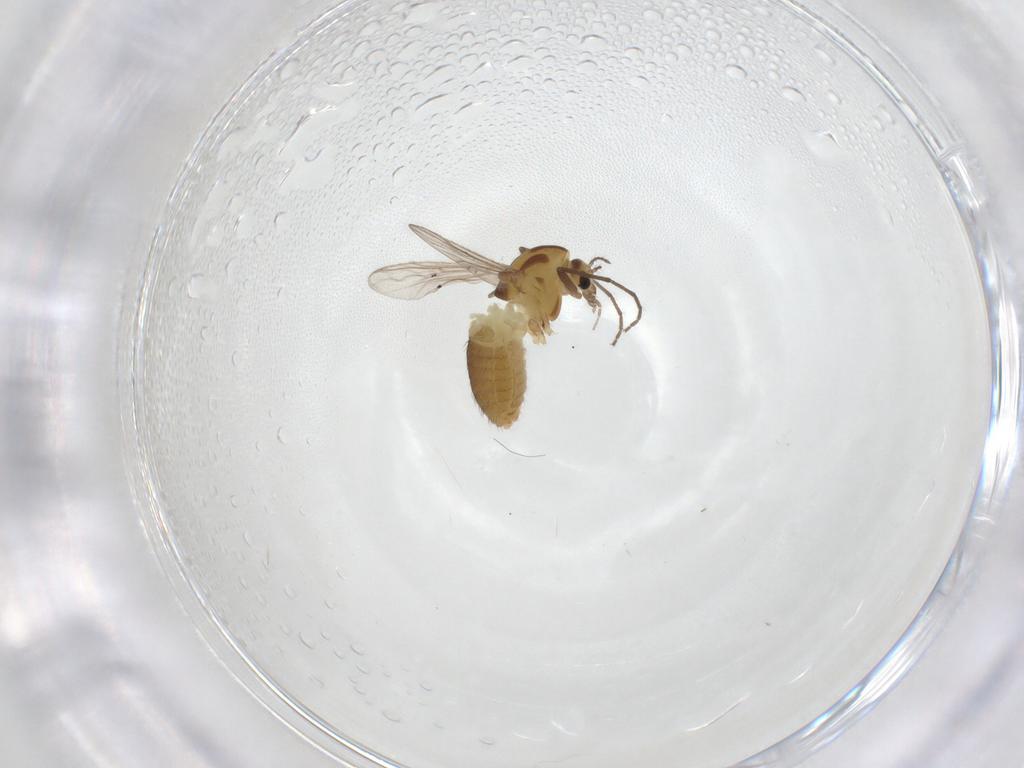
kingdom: Animalia
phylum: Arthropoda
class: Insecta
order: Diptera
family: Chironomidae
